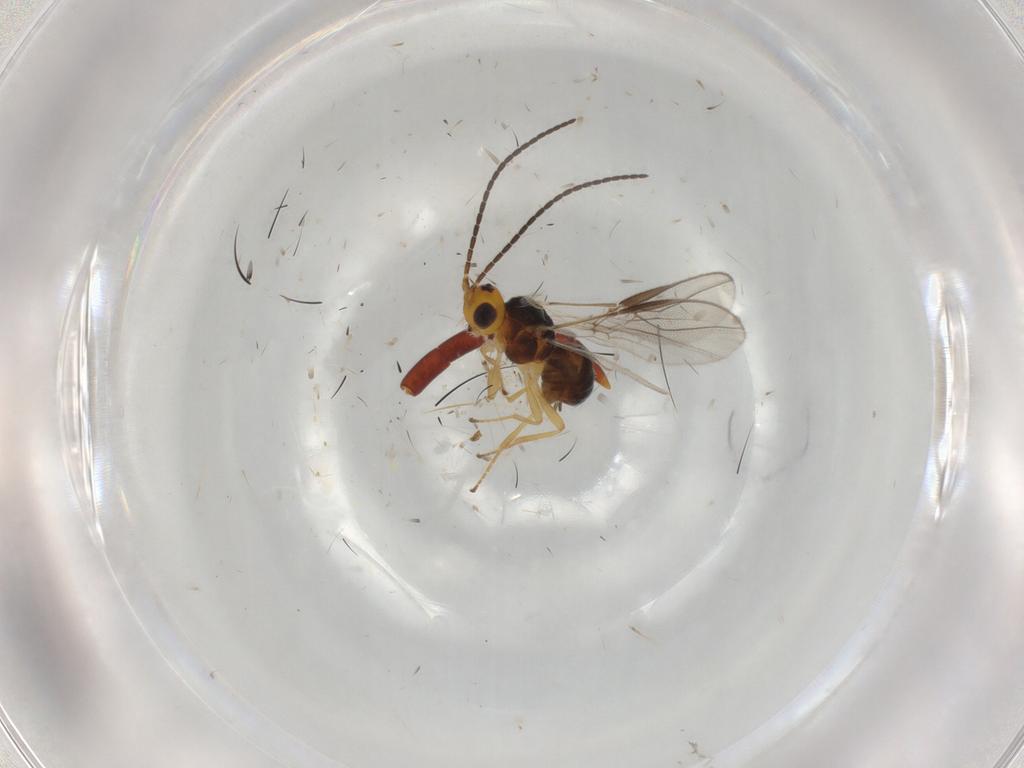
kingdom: Animalia
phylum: Arthropoda
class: Insecta
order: Hymenoptera
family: Braconidae
